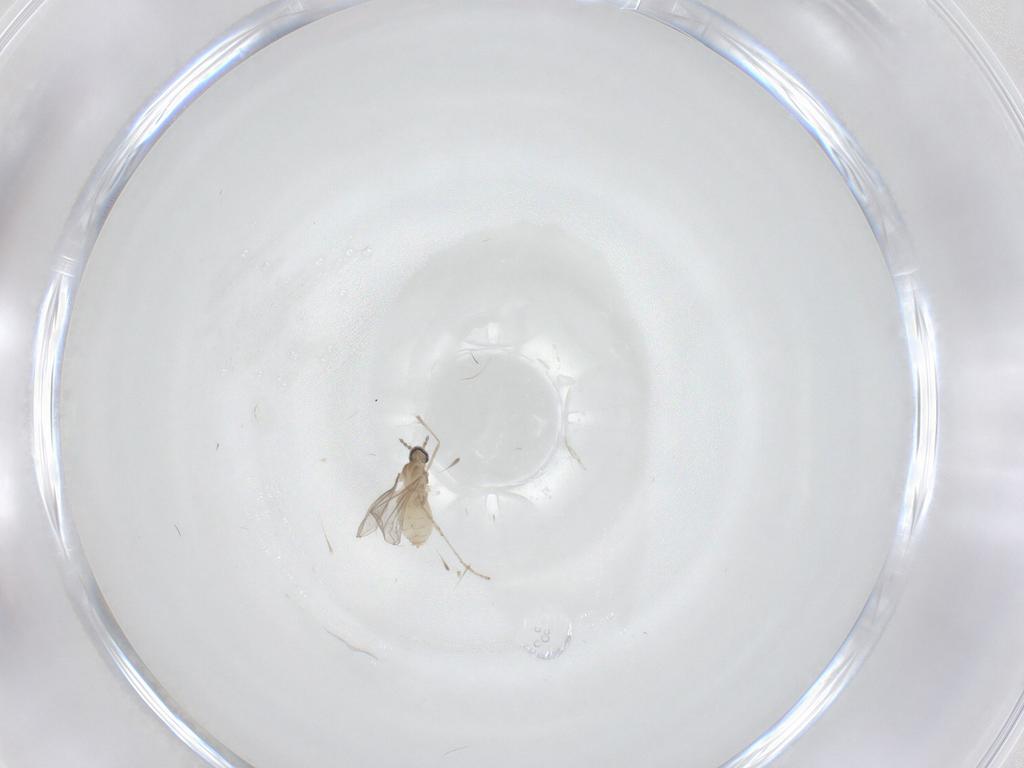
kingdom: Animalia
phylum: Arthropoda
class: Insecta
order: Diptera
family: Cecidomyiidae
